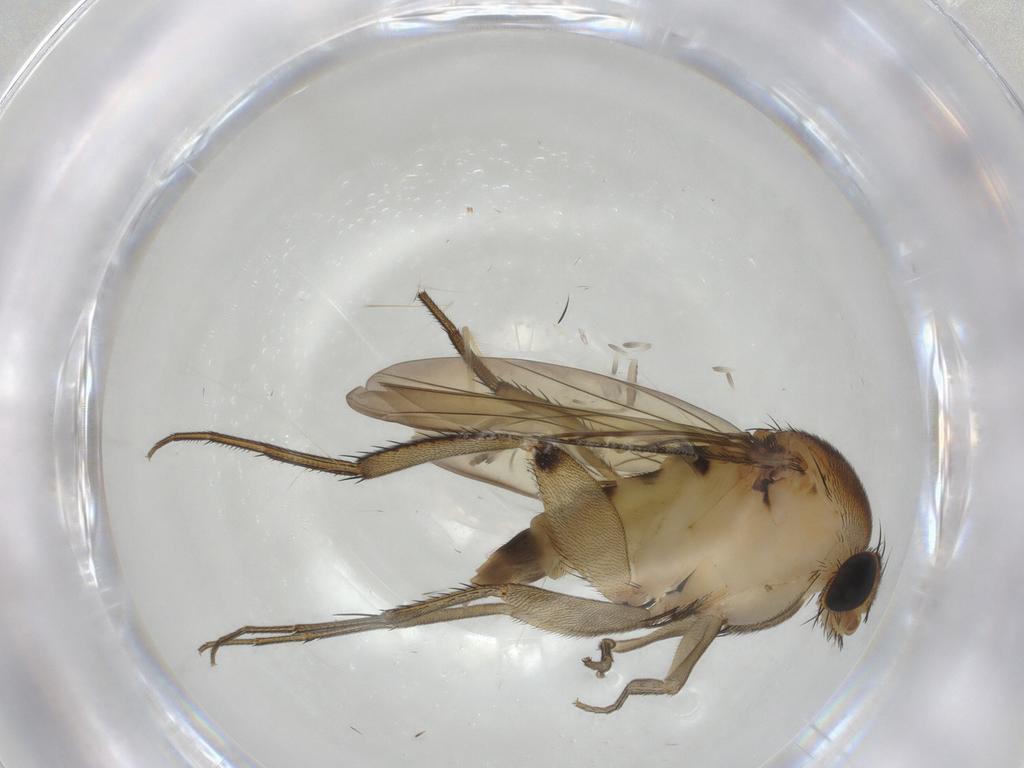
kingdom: Animalia
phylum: Arthropoda
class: Insecta
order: Diptera
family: Phoridae
